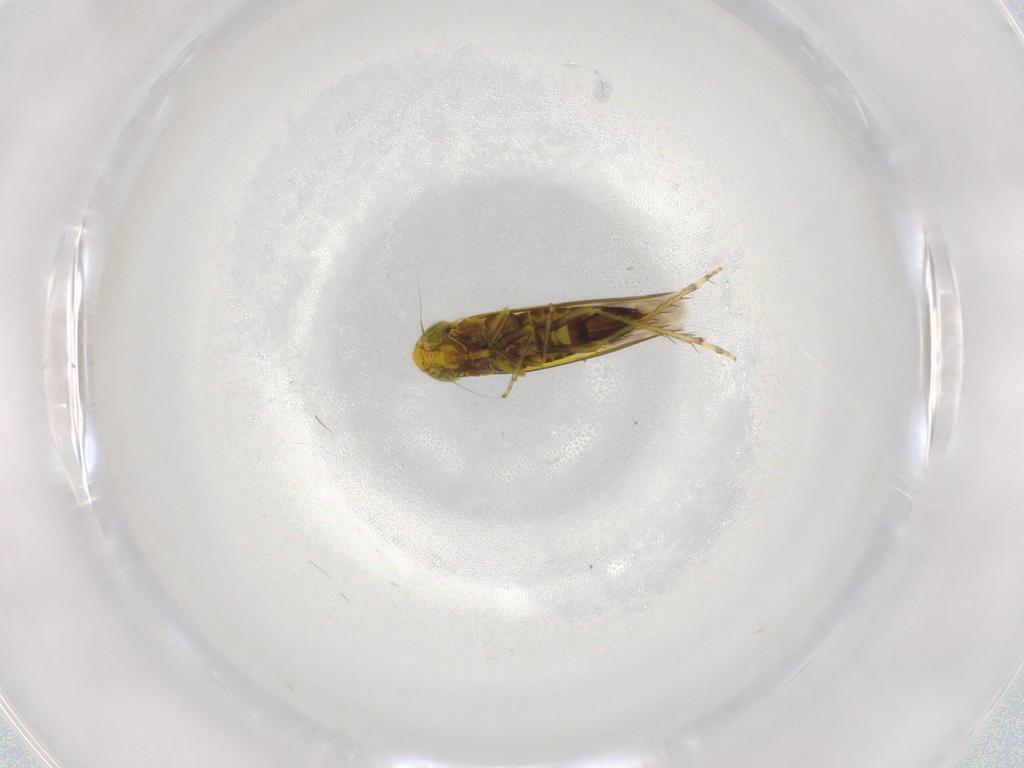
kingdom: Animalia
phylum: Arthropoda
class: Insecta
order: Hemiptera
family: Cicadellidae
